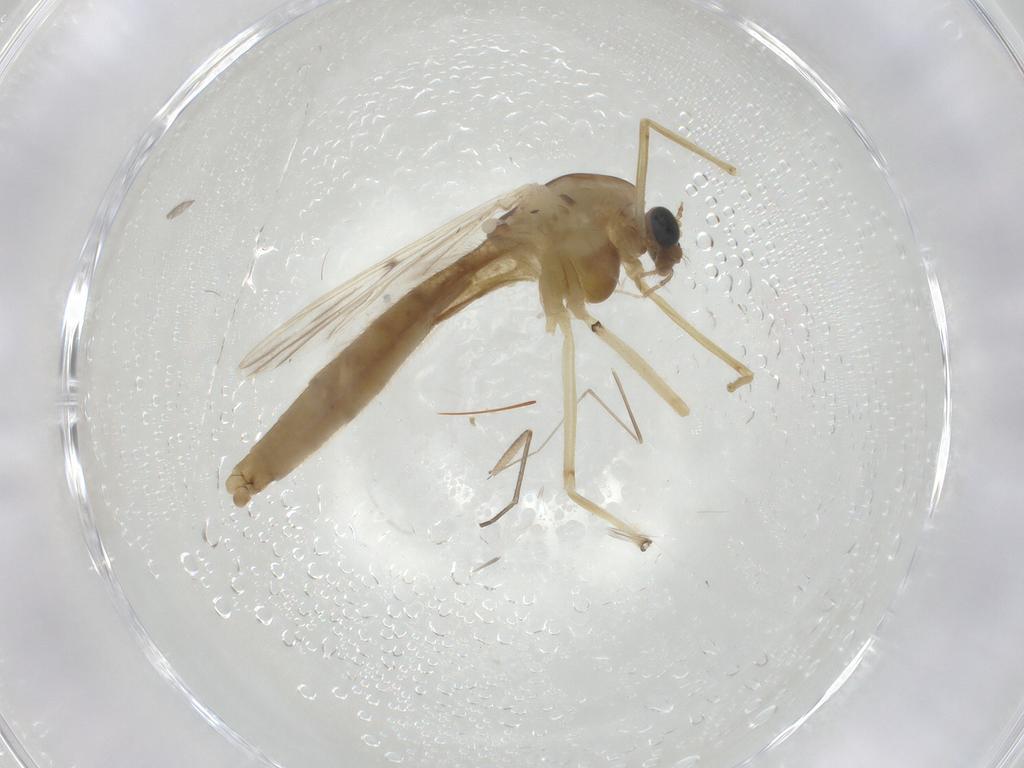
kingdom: Animalia
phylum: Arthropoda
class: Insecta
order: Diptera
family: Chironomidae
